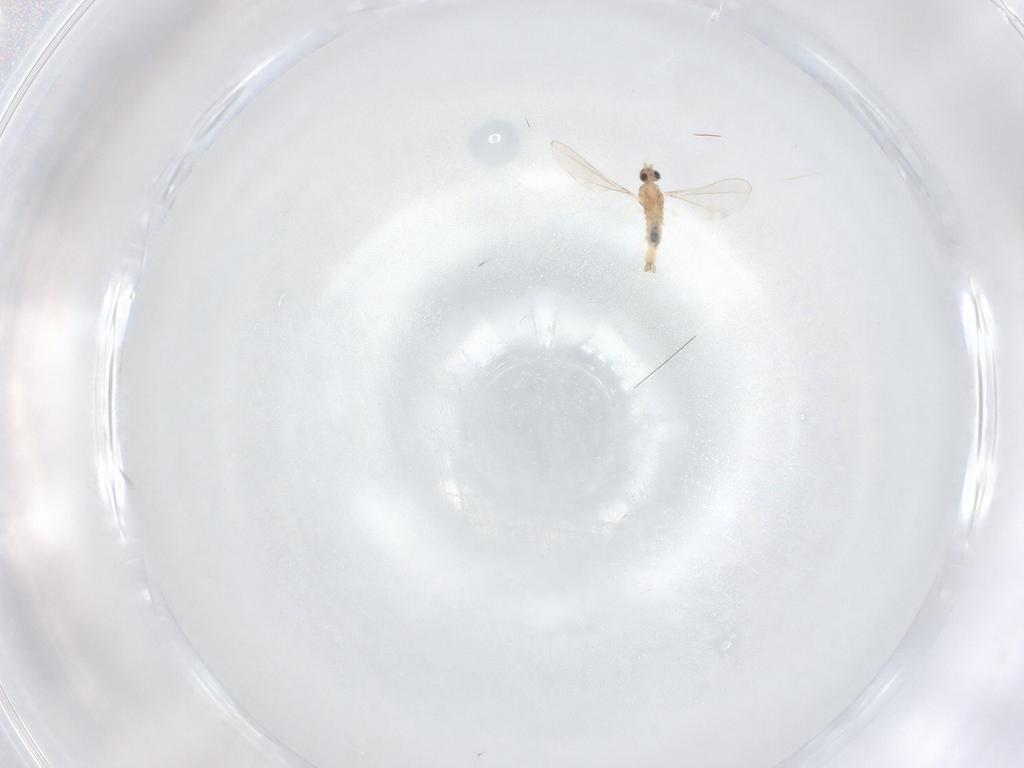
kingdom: Animalia
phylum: Arthropoda
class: Insecta
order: Diptera
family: Cecidomyiidae
